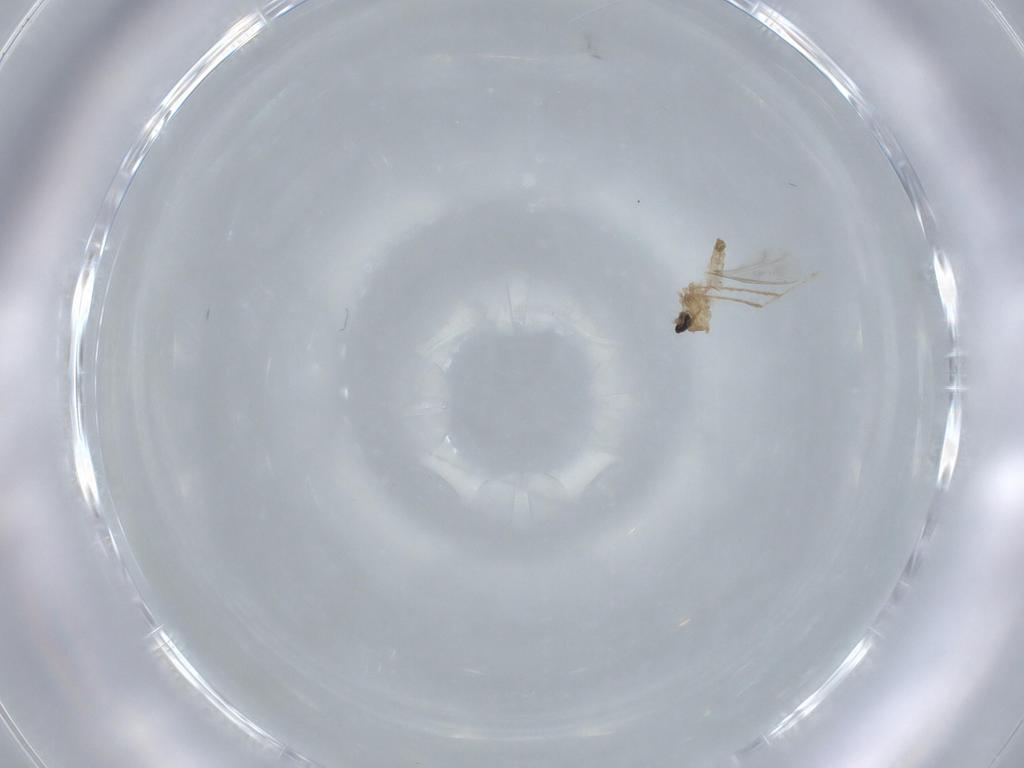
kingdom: Animalia
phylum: Arthropoda
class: Insecta
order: Diptera
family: Cecidomyiidae
